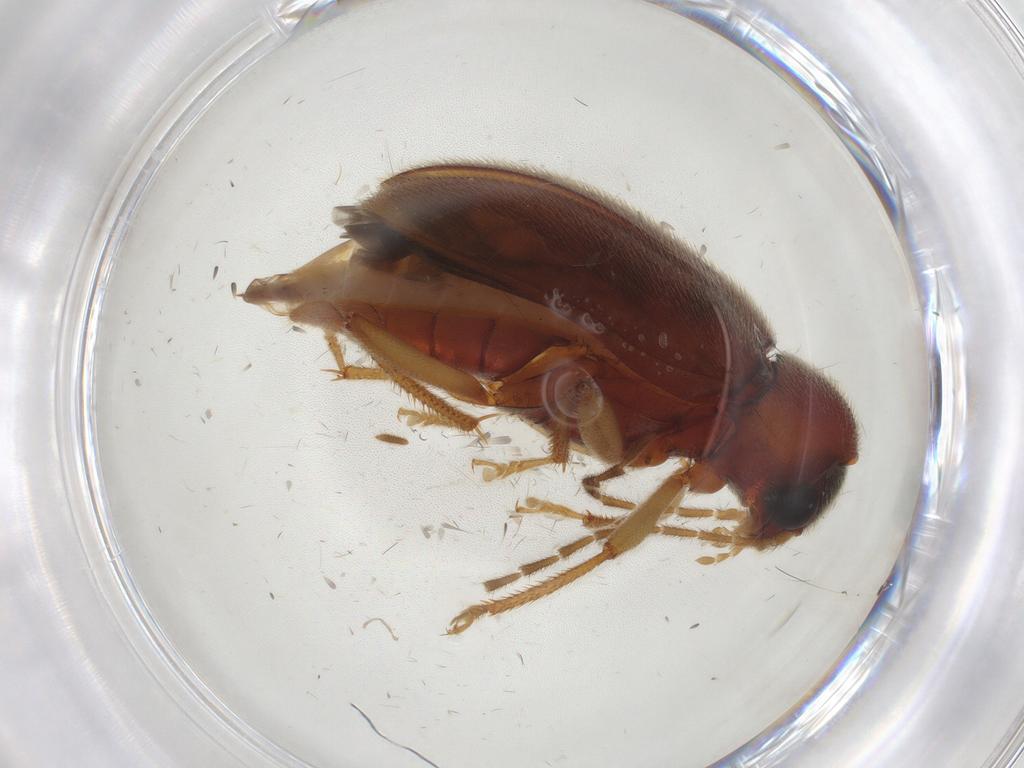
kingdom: Animalia
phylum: Arthropoda
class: Insecta
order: Coleoptera
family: Ptilodactylidae
